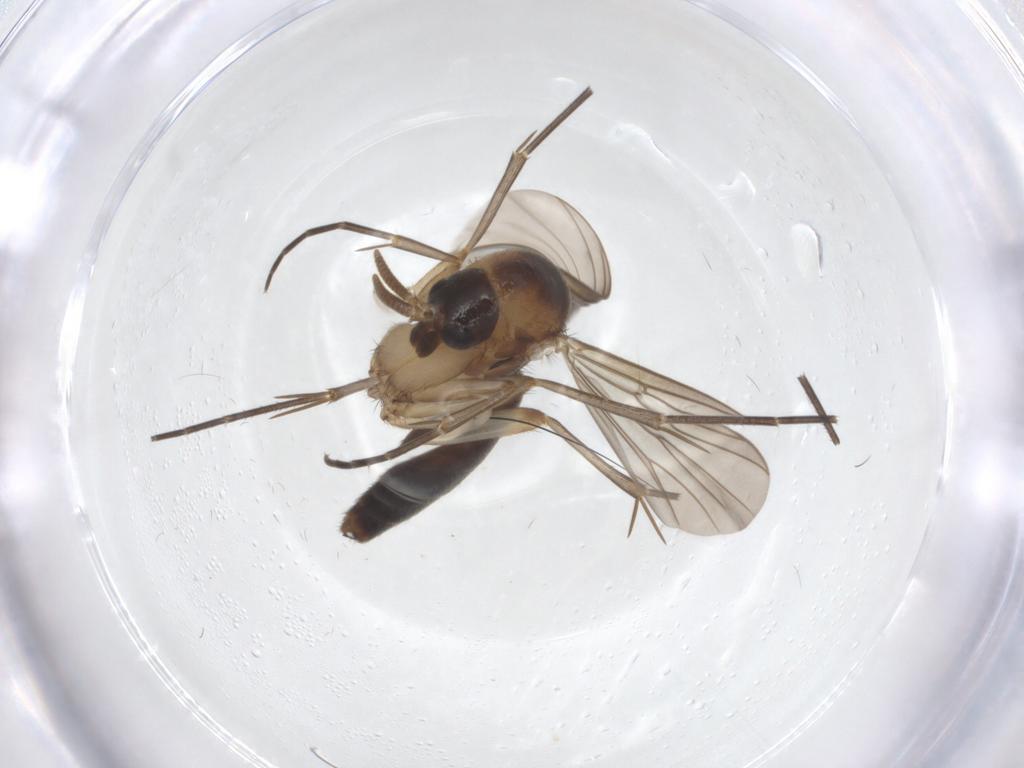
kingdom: Animalia
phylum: Arthropoda
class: Insecta
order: Diptera
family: Mycetophilidae
